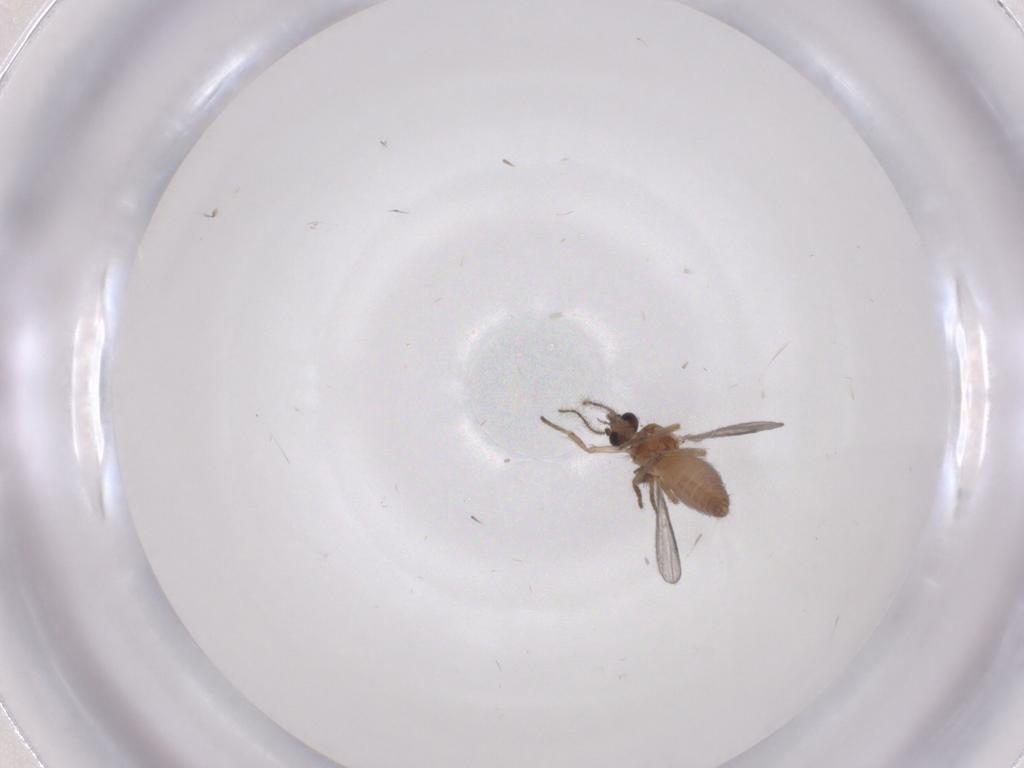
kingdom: Animalia
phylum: Arthropoda
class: Insecta
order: Diptera
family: Ceratopogonidae
